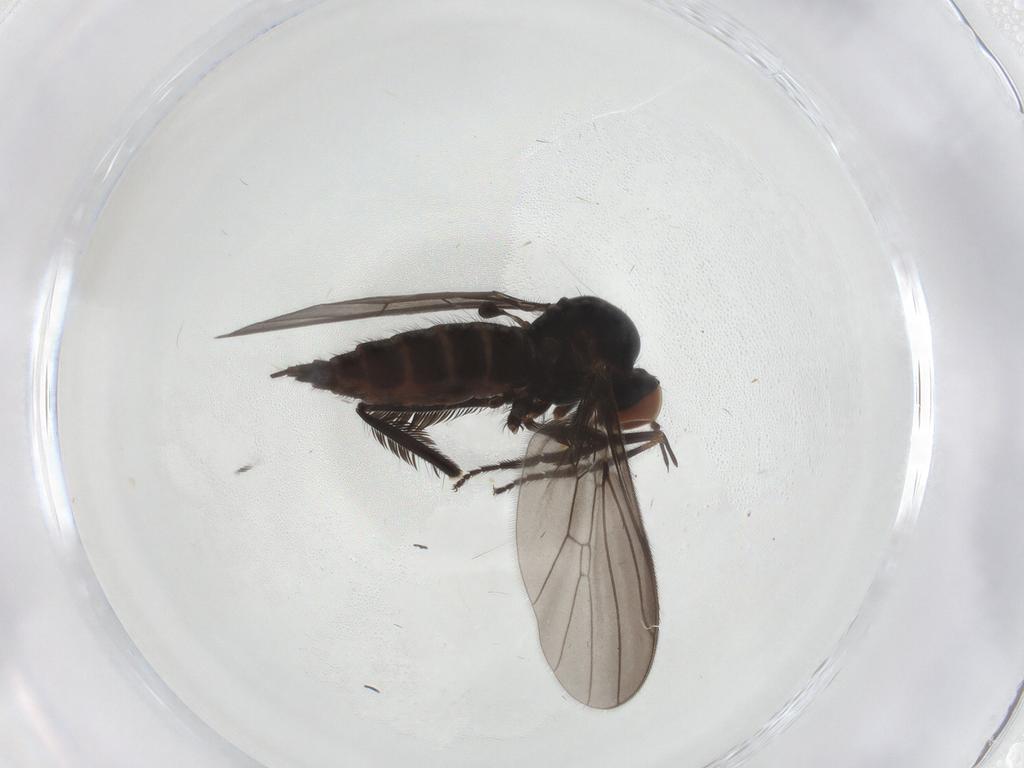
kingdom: Animalia
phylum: Arthropoda
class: Insecta
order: Diptera
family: Empididae
